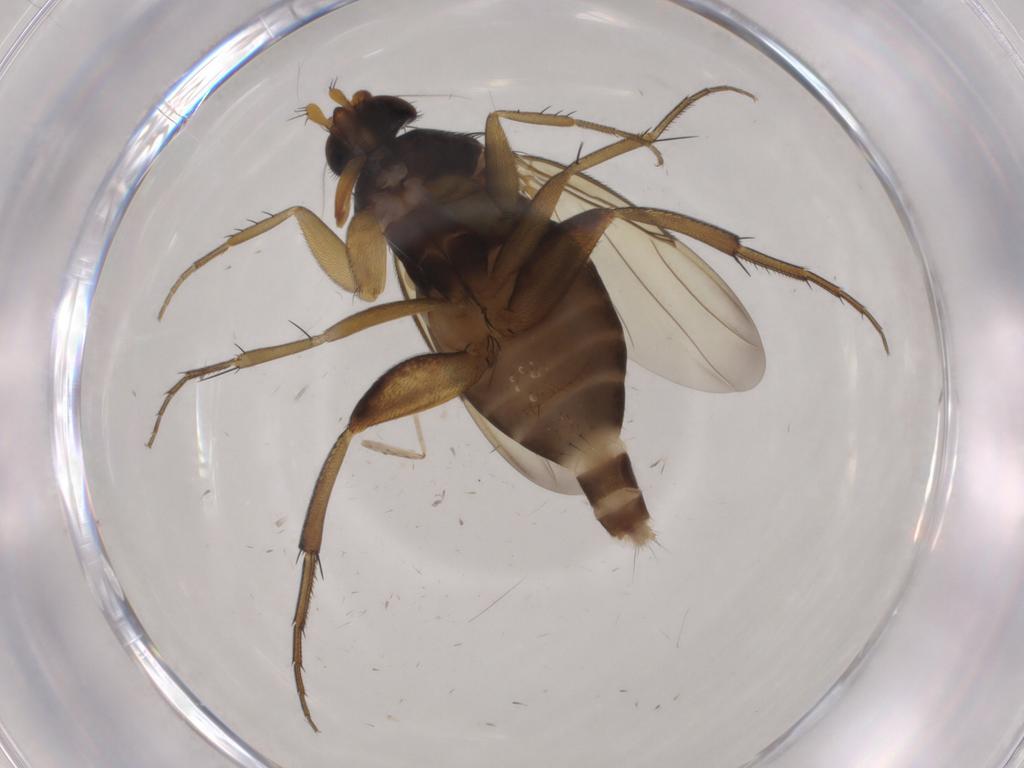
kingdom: Animalia
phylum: Arthropoda
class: Insecta
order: Diptera
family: Phoridae
